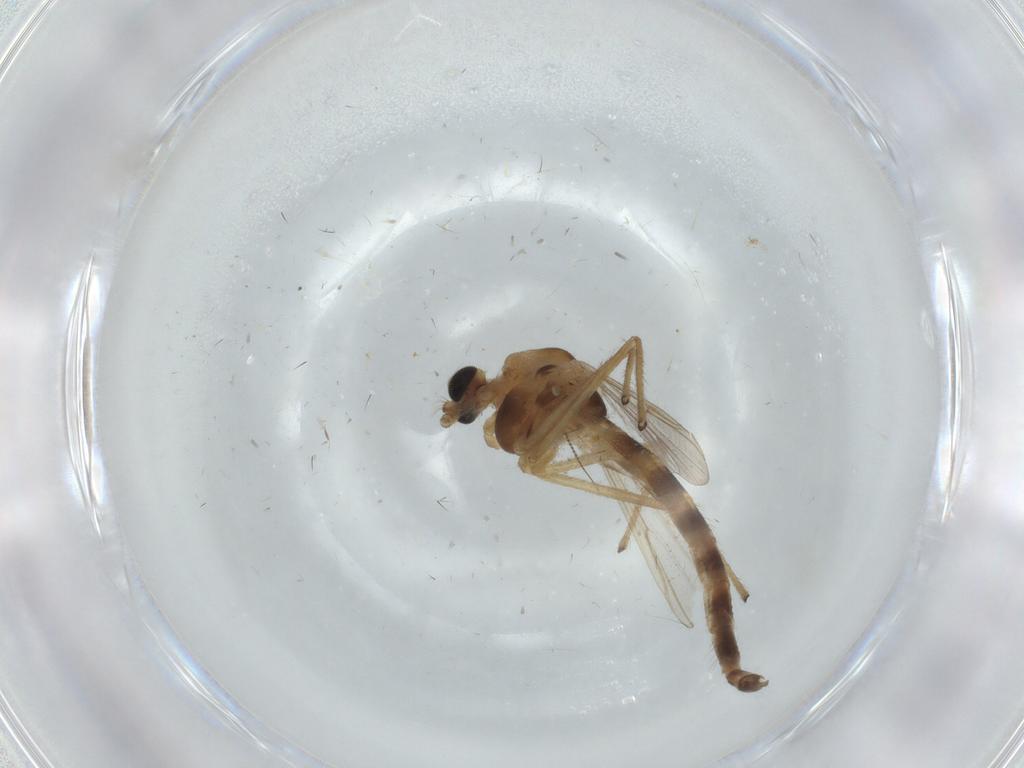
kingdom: Animalia
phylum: Arthropoda
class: Insecta
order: Diptera
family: Chironomidae
